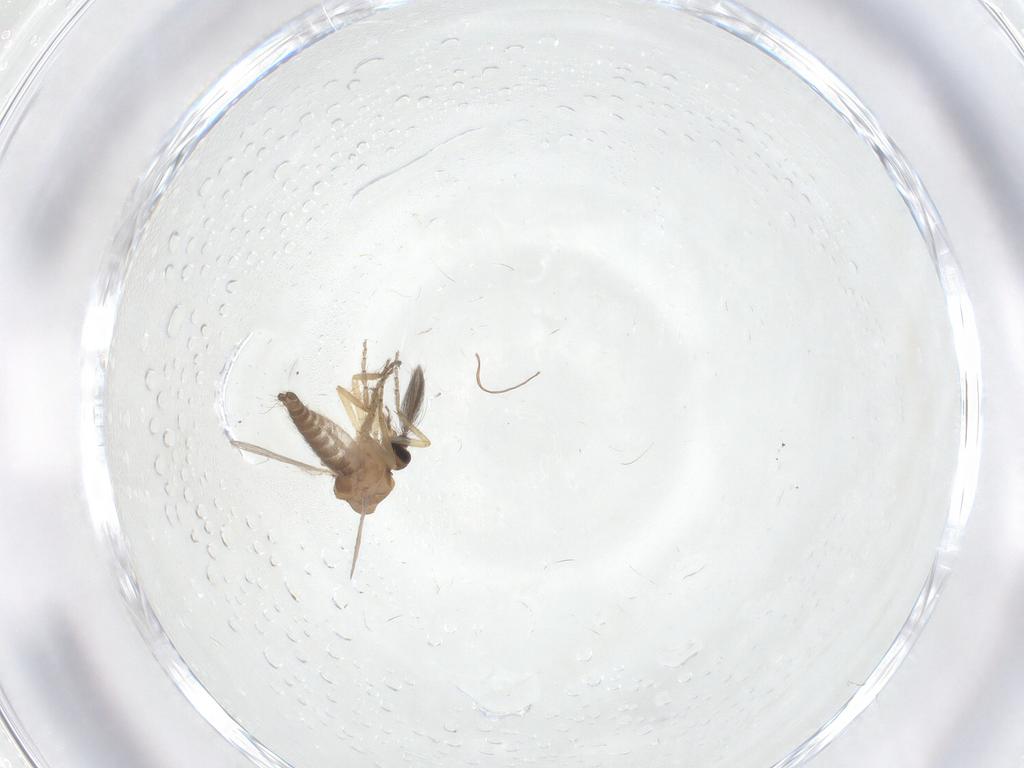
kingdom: Animalia
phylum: Arthropoda
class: Insecta
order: Diptera
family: Ceratopogonidae
